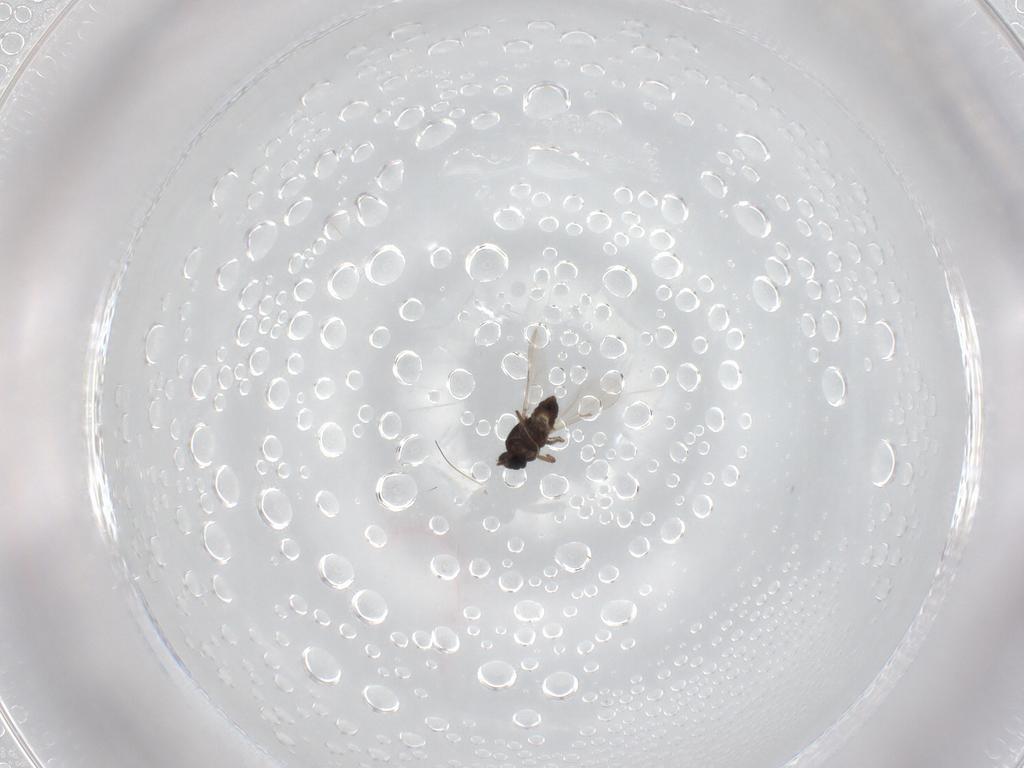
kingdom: Animalia
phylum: Arthropoda
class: Insecta
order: Diptera
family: Ceratopogonidae
